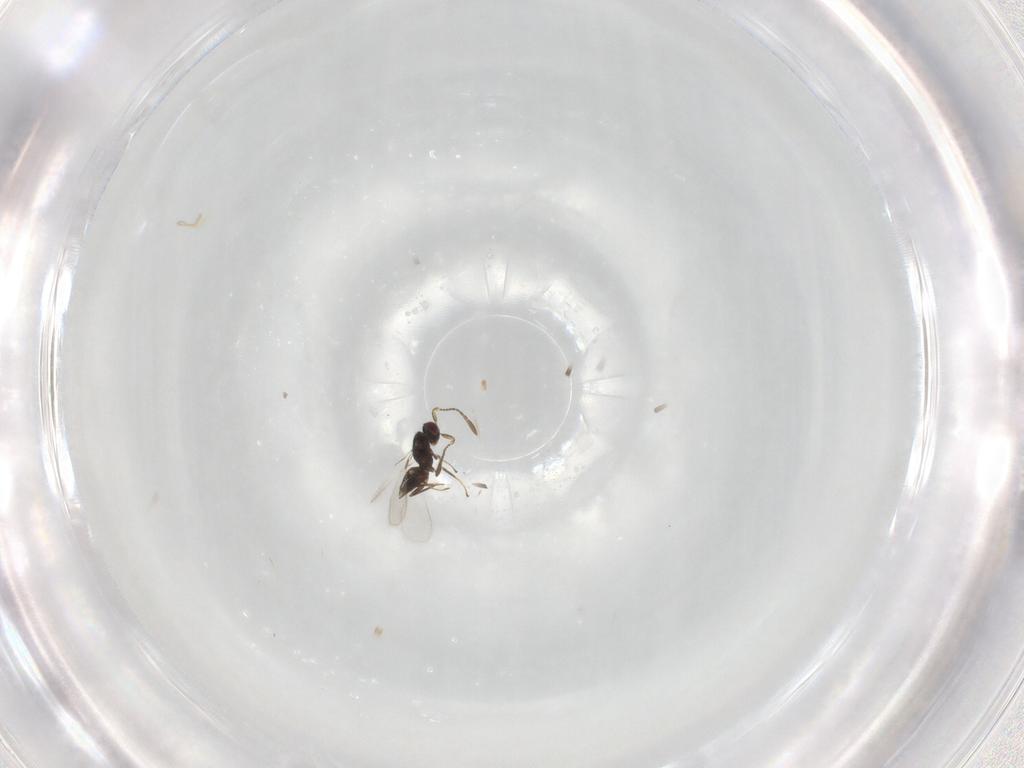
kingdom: Animalia
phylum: Arthropoda
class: Insecta
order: Hymenoptera
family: Mymaridae
